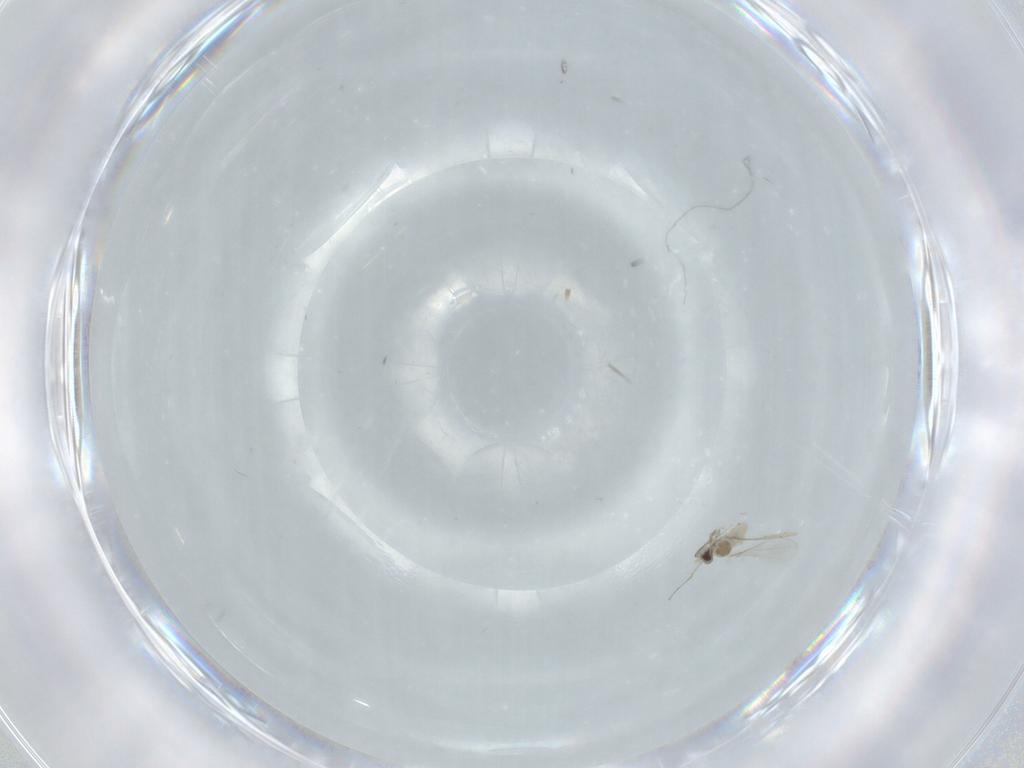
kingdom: Animalia
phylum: Arthropoda
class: Insecta
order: Diptera
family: Cecidomyiidae
